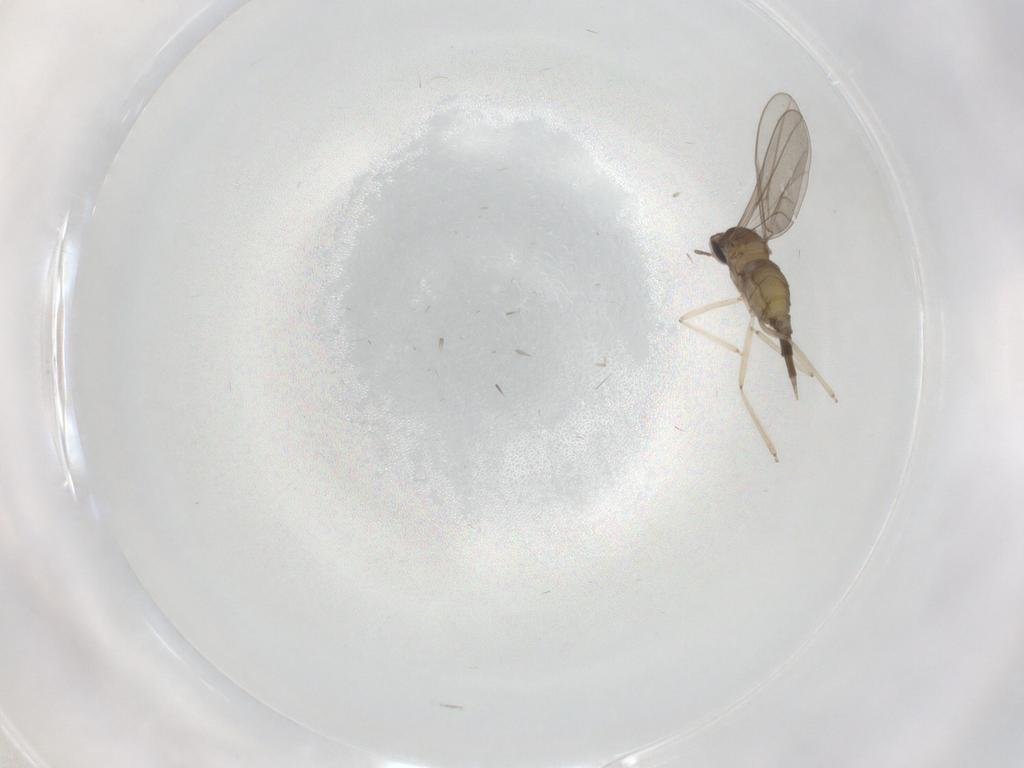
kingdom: Animalia
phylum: Arthropoda
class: Insecta
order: Diptera
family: Cecidomyiidae
